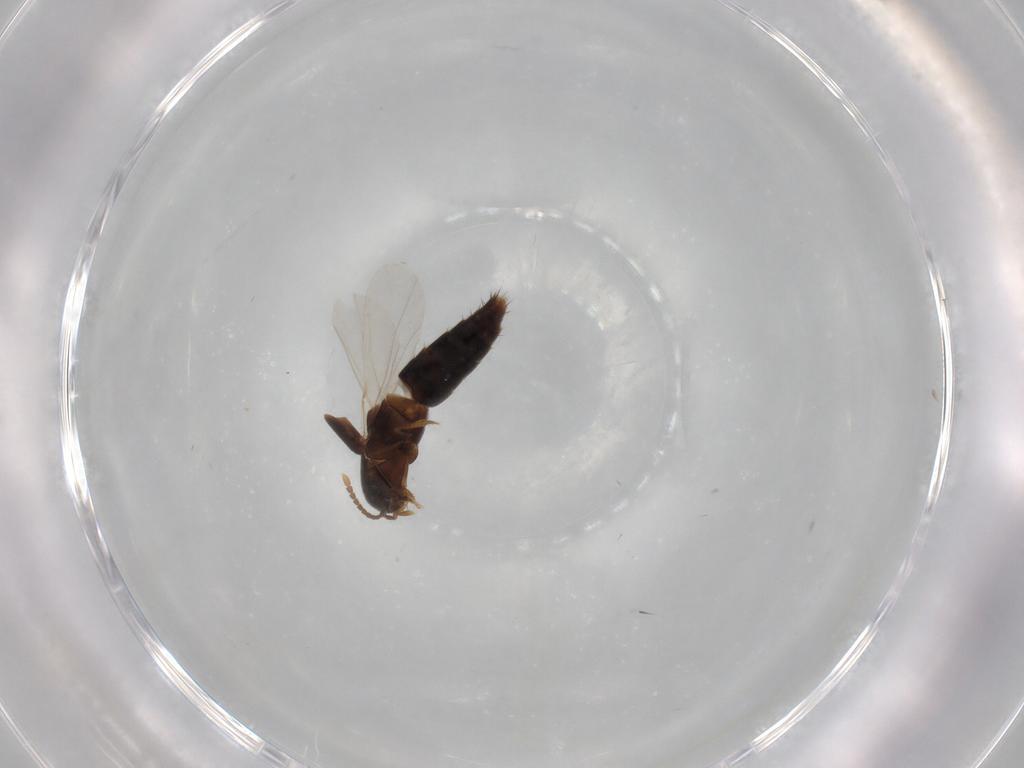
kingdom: Animalia
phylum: Arthropoda
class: Insecta
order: Coleoptera
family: Staphylinidae
